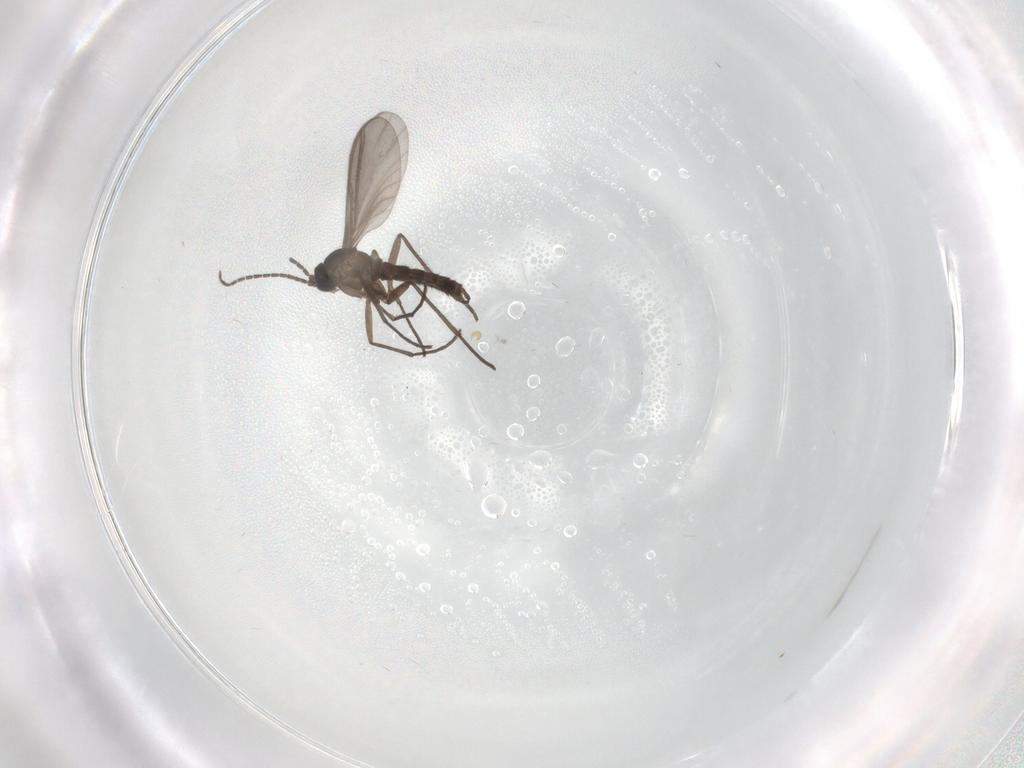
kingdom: Animalia
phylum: Arthropoda
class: Insecta
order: Diptera
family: Sciaridae
